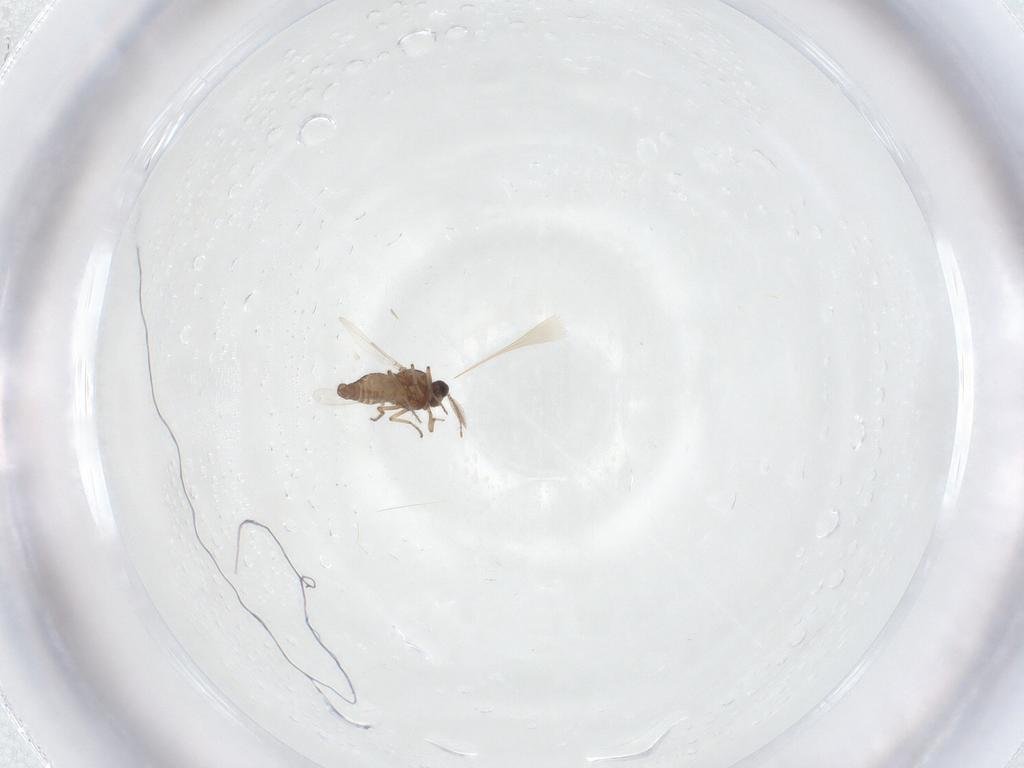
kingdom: Animalia
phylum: Arthropoda
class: Insecta
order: Diptera
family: Ceratopogonidae
